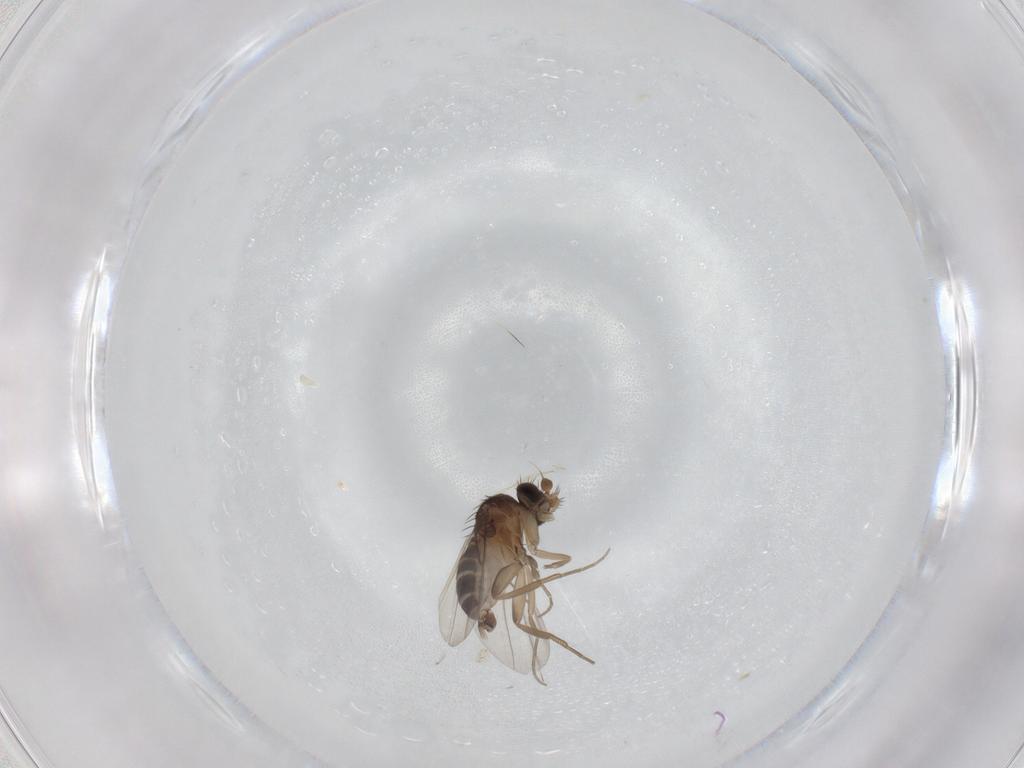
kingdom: Animalia
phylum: Arthropoda
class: Insecta
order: Diptera
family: Phoridae
